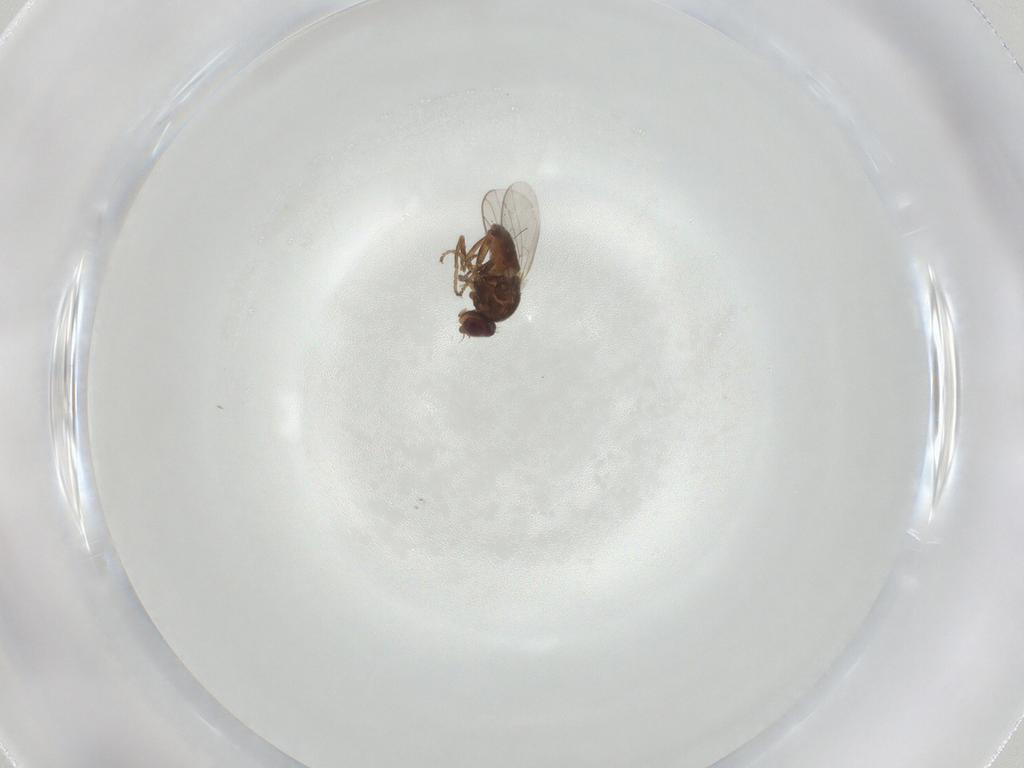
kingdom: Animalia
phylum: Arthropoda
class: Insecta
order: Diptera
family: Chloropidae
